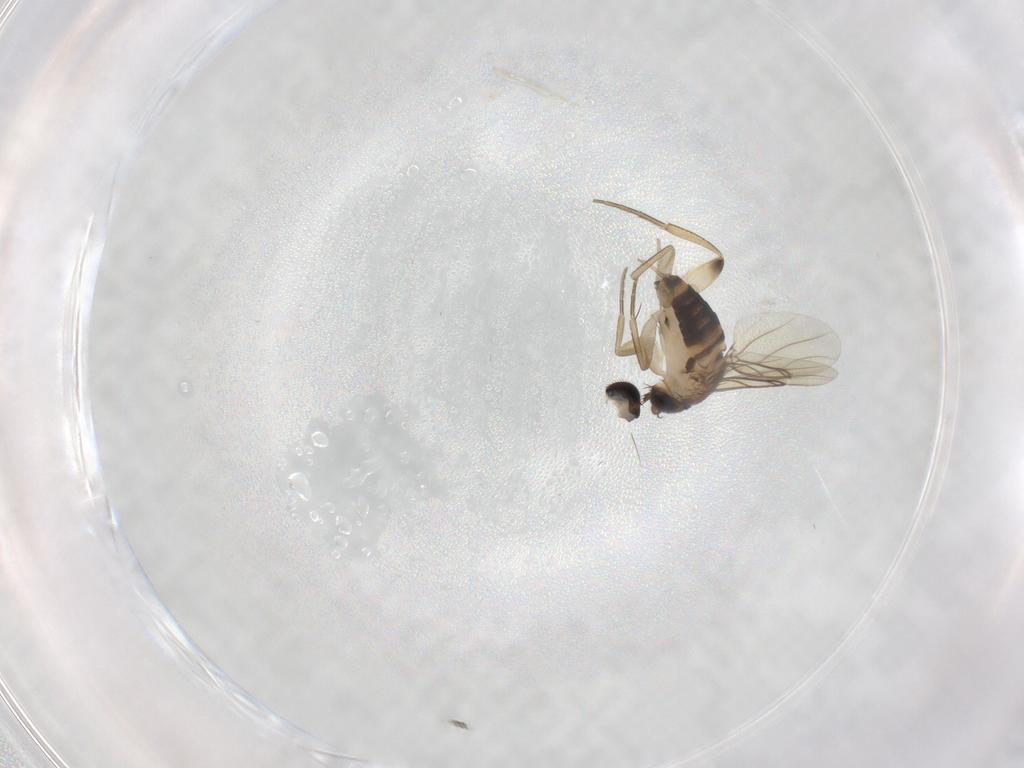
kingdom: Animalia
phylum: Arthropoda
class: Insecta
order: Diptera
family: Phoridae
